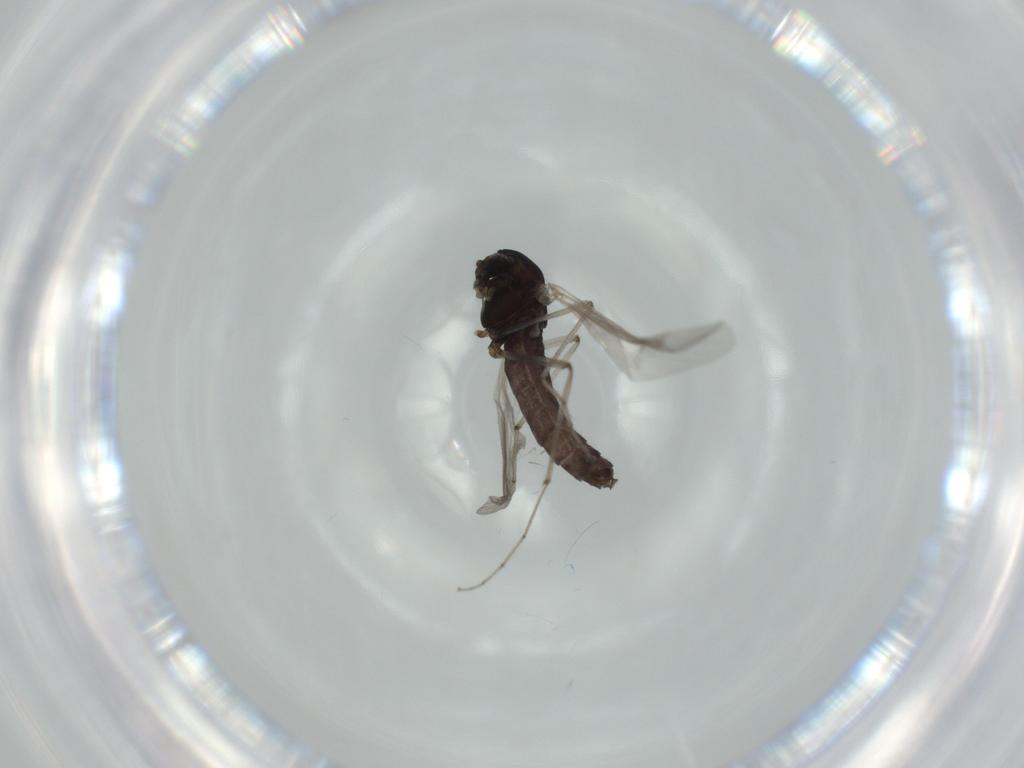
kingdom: Animalia
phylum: Arthropoda
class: Insecta
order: Diptera
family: Chironomidae
